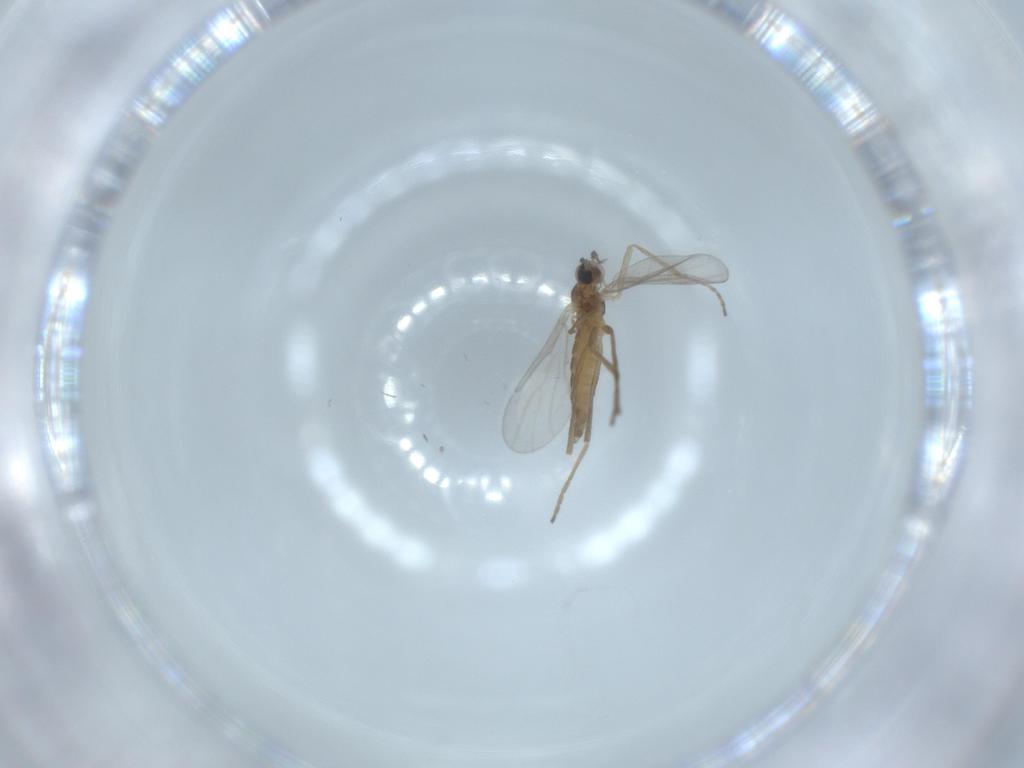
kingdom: Animalia
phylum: Arthropoda
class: Insecta
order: Diptera
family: Cecidomyiidae
